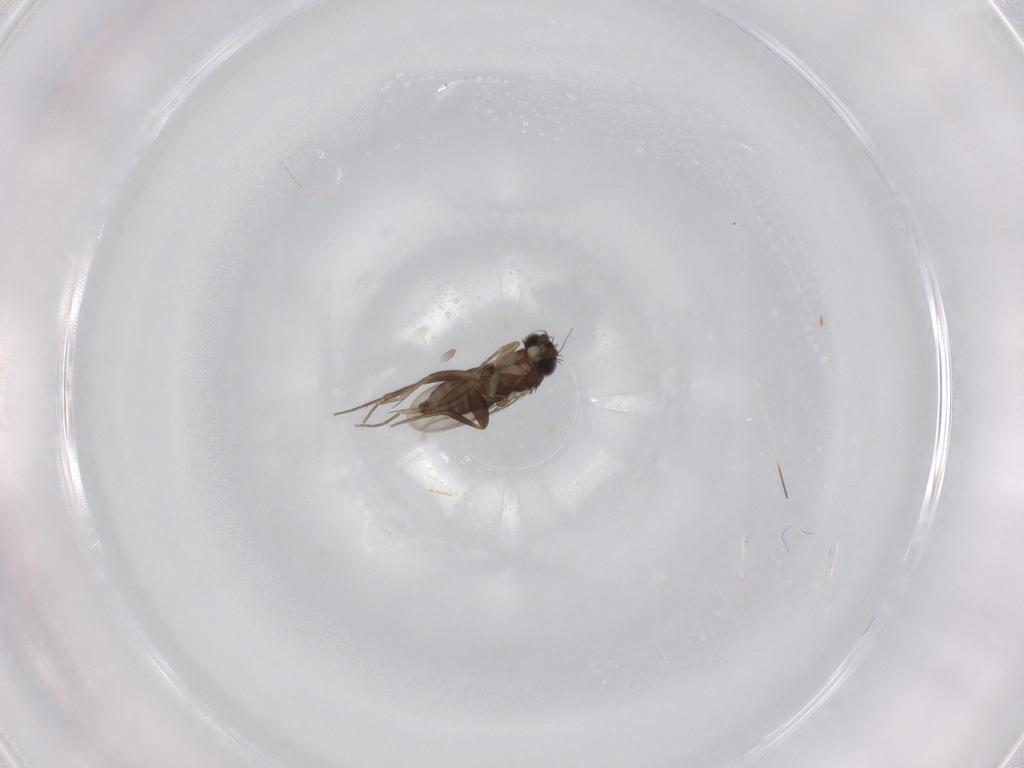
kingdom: Animalia
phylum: Arthropoda
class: Insecta
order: Diptera
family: Phoridae
